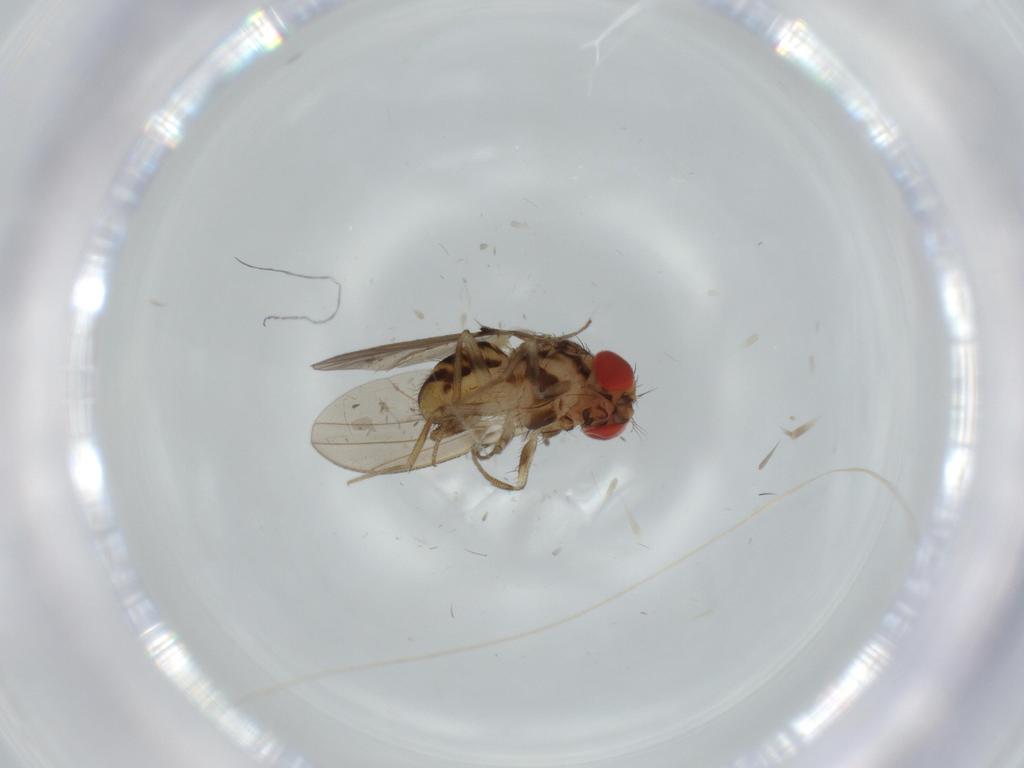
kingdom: Animalia
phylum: Arthropoda
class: Insecta
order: Diptera
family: Drosophilidae
